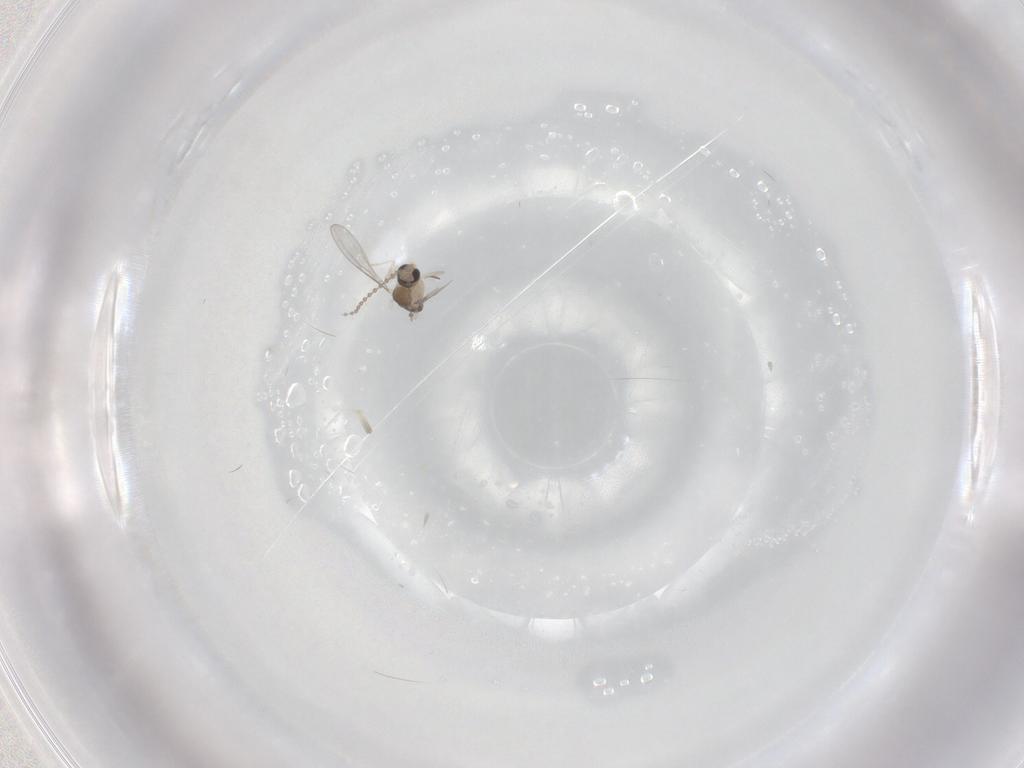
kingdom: Animalia
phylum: Arthropoda
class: Insecta
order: Diptera
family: Cecidomyiidae
